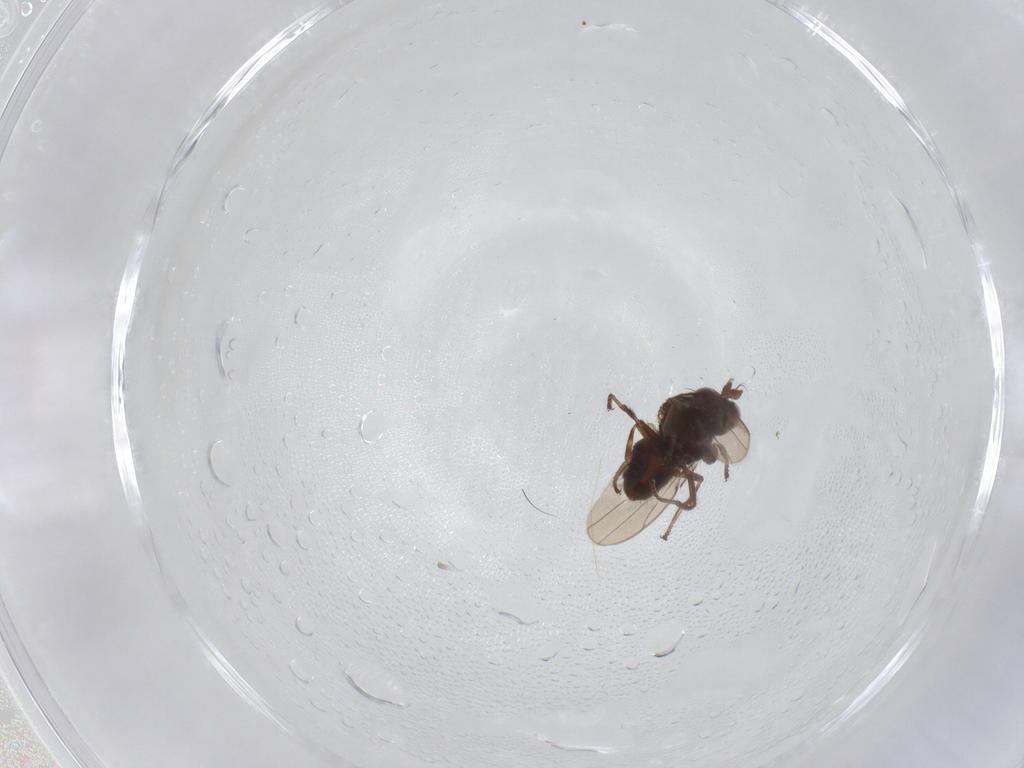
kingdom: Animalia
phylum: Arthropoda
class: Insecta
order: Diptera
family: Ephydridae
